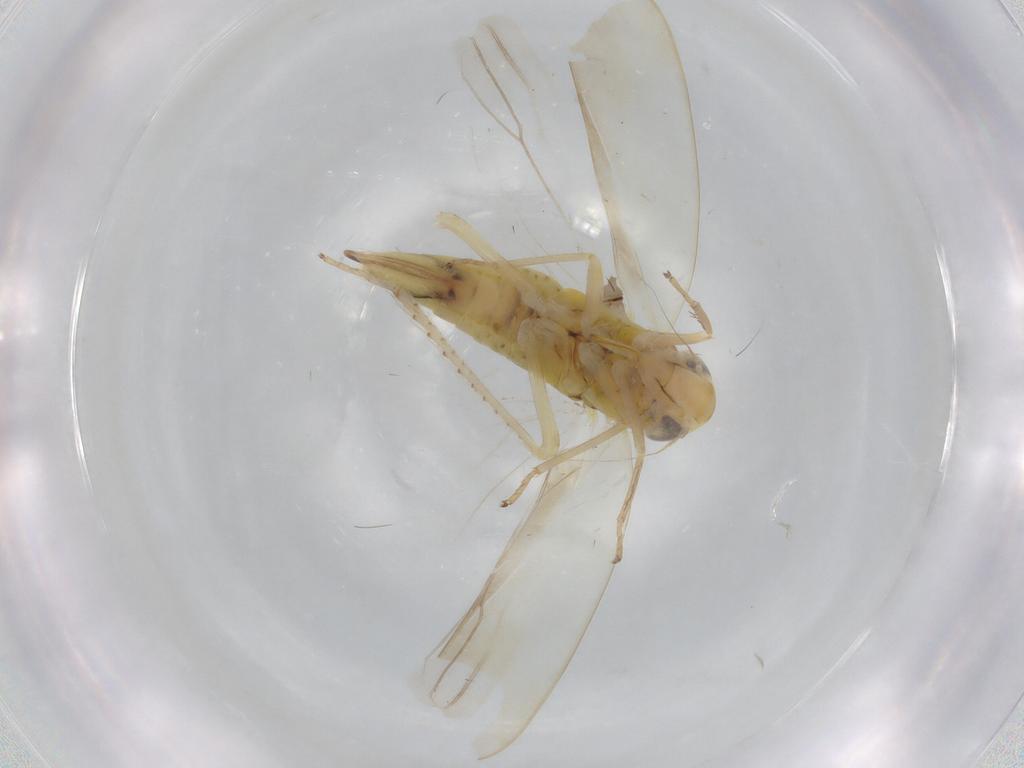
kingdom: Animalia
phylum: Arthropoda
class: Insecta
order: Hemiptera
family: Cicadellidae
